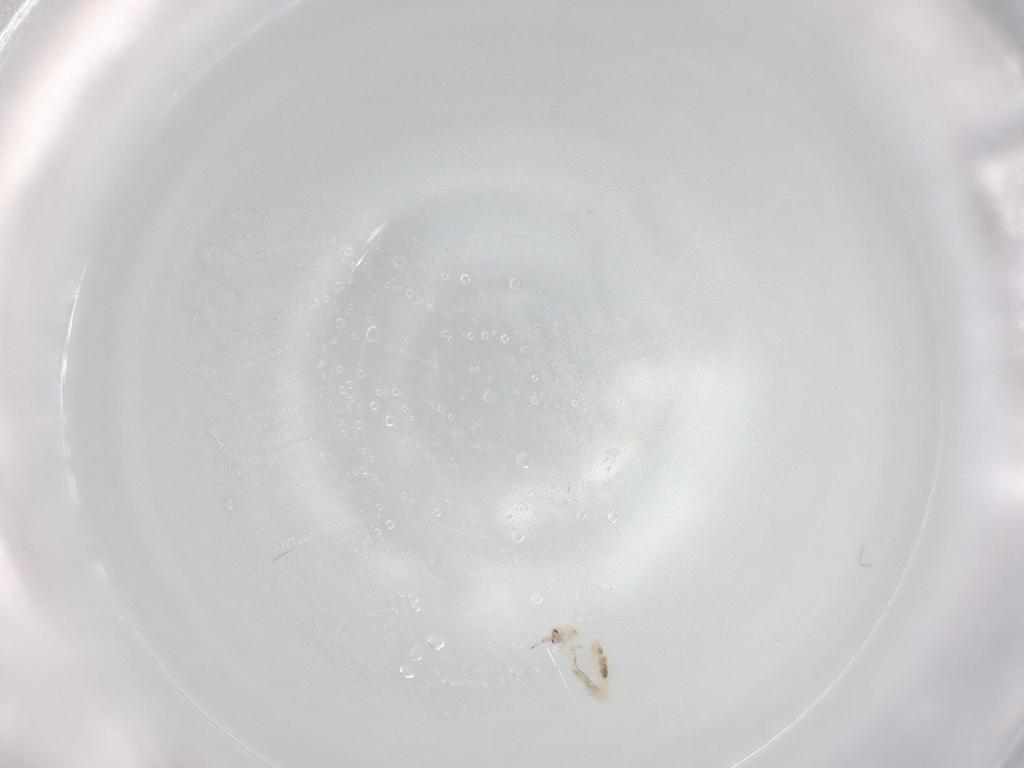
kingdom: Animalia
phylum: Arthropoda
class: Collembola
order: Entomobryomorpha
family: Entomobryidae
